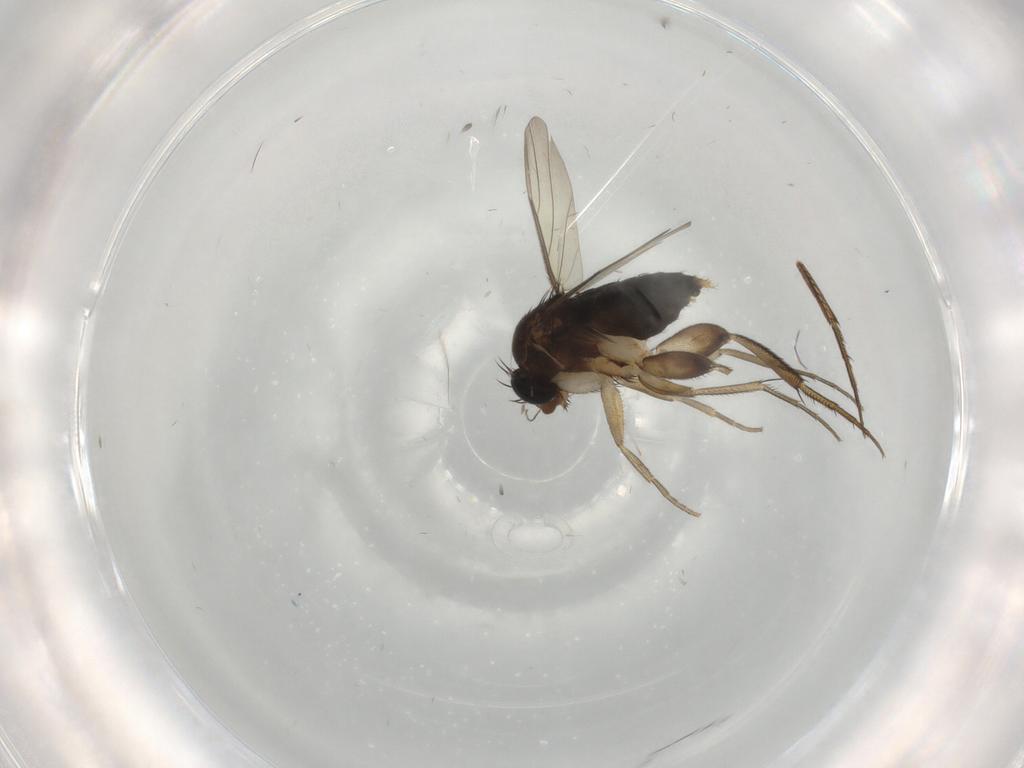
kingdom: Animalia
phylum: Arthropoda
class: Insecta
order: Diptera
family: Phoridae
